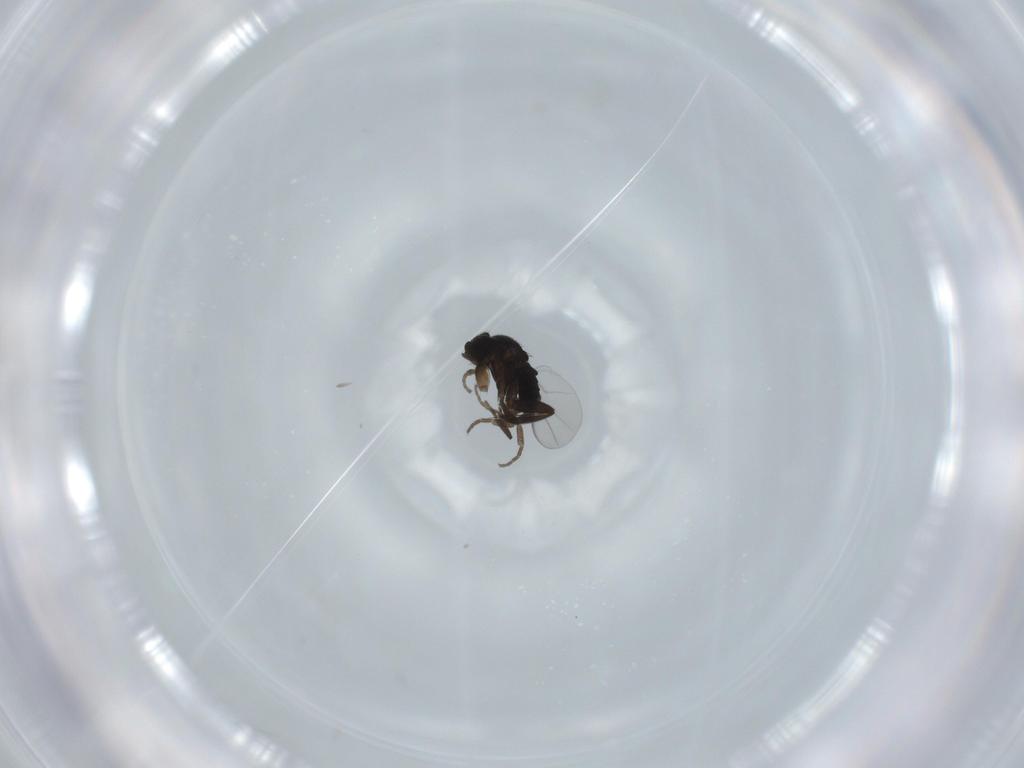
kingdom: Animalia
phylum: Arthropoda
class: Insecta
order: Diptera
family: Phoridae
